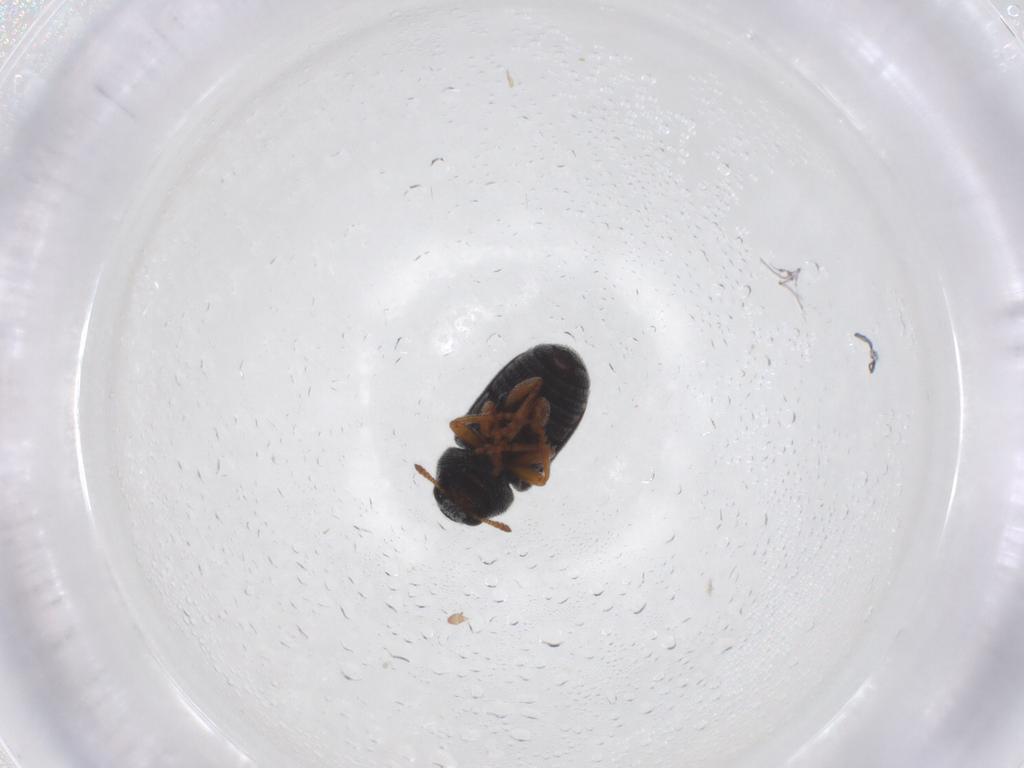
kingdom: Animalia
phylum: Arthropoda
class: Insecta
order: Coleoptera
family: Anthribidae
